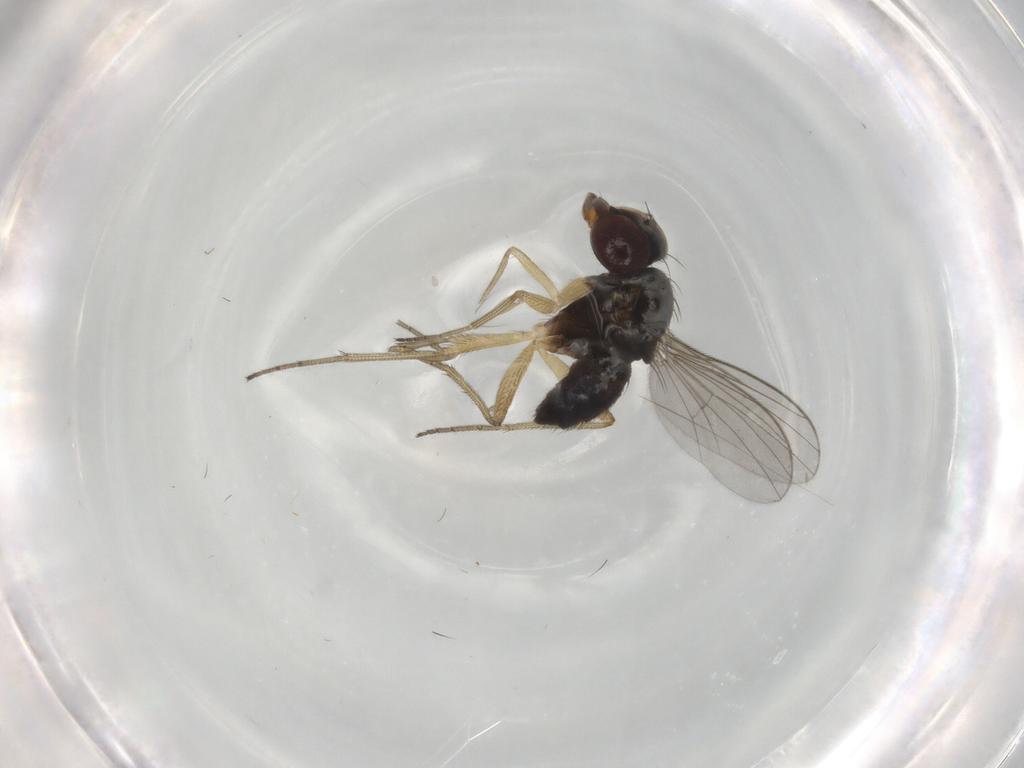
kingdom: Animalia
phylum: Arthropoda
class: Insecta
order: Diptera
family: Dolichopodidae
